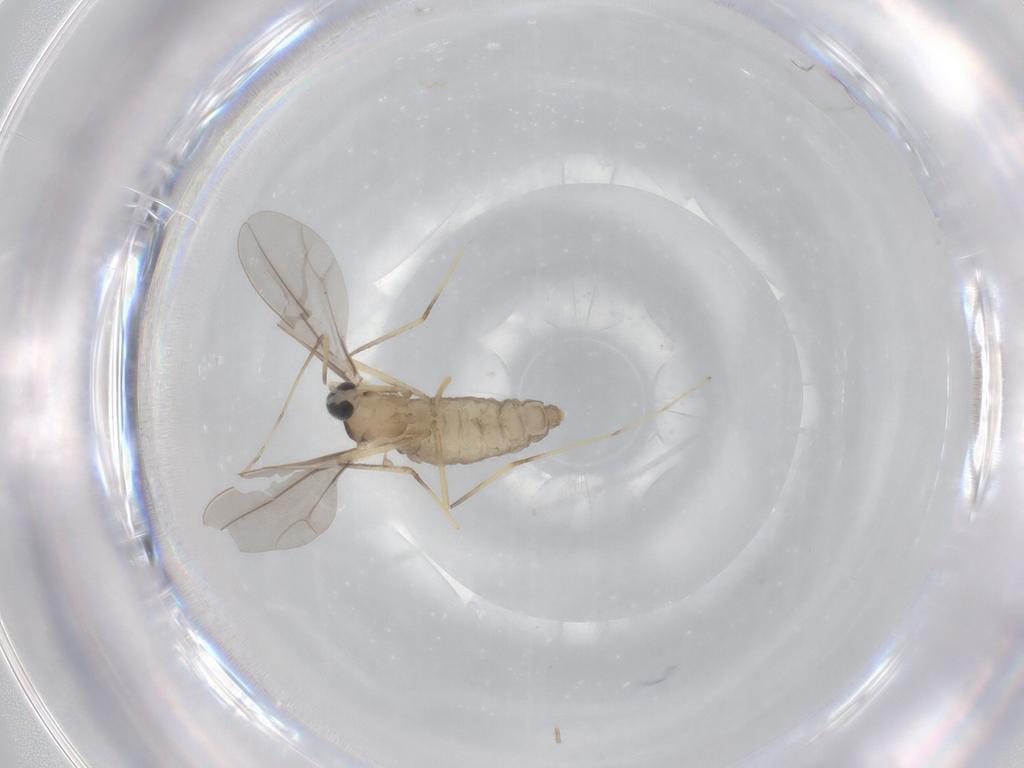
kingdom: Animalia
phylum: Arthropoda
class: Insecta
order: Diptera
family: Cecidomyiidae
